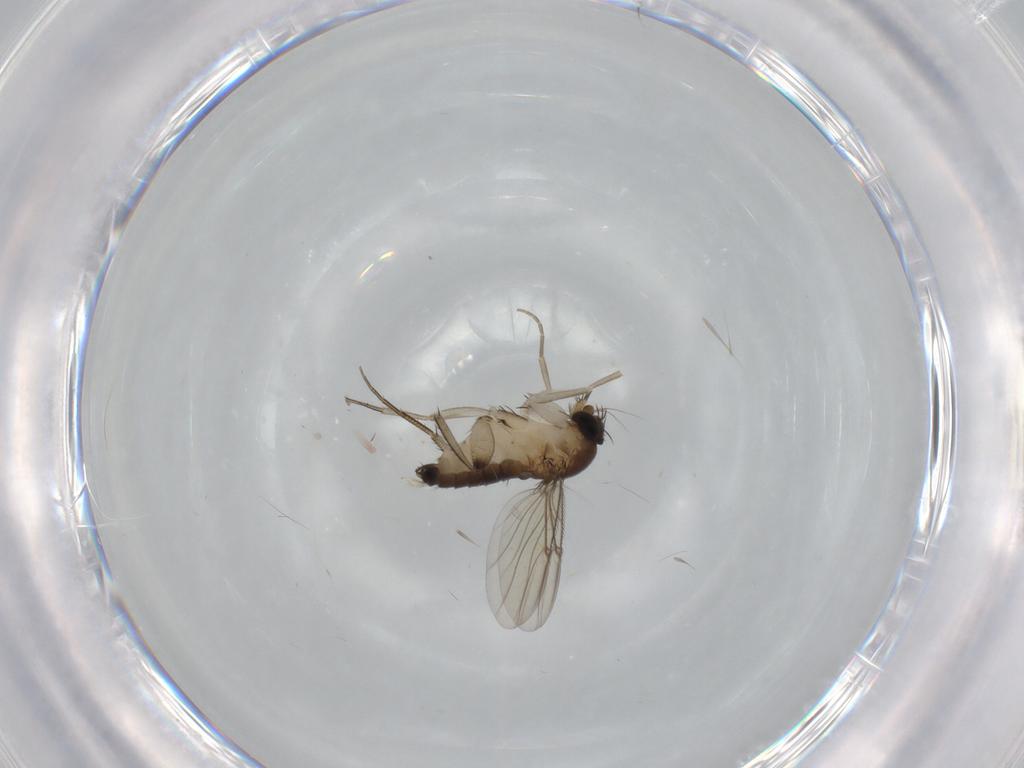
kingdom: Animalia
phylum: Arthropoda
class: Insecta
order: Diptera
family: Phoridae
